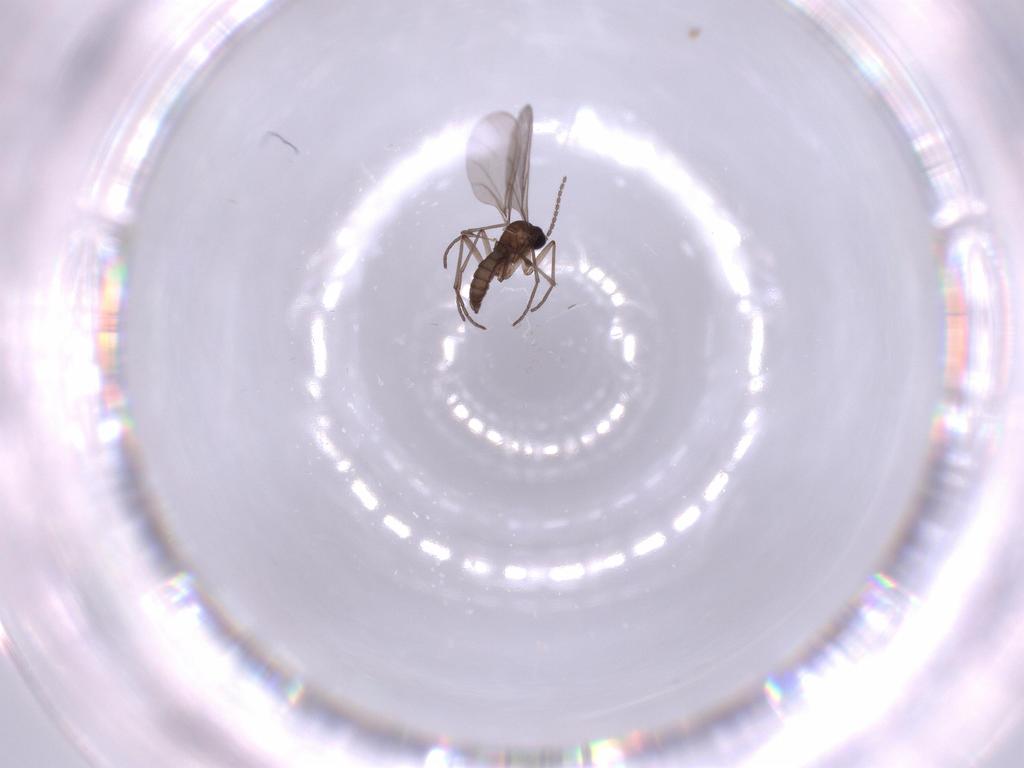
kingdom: Animalia
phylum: Arthropoda
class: Insecta
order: Diptera
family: Sciaridae
